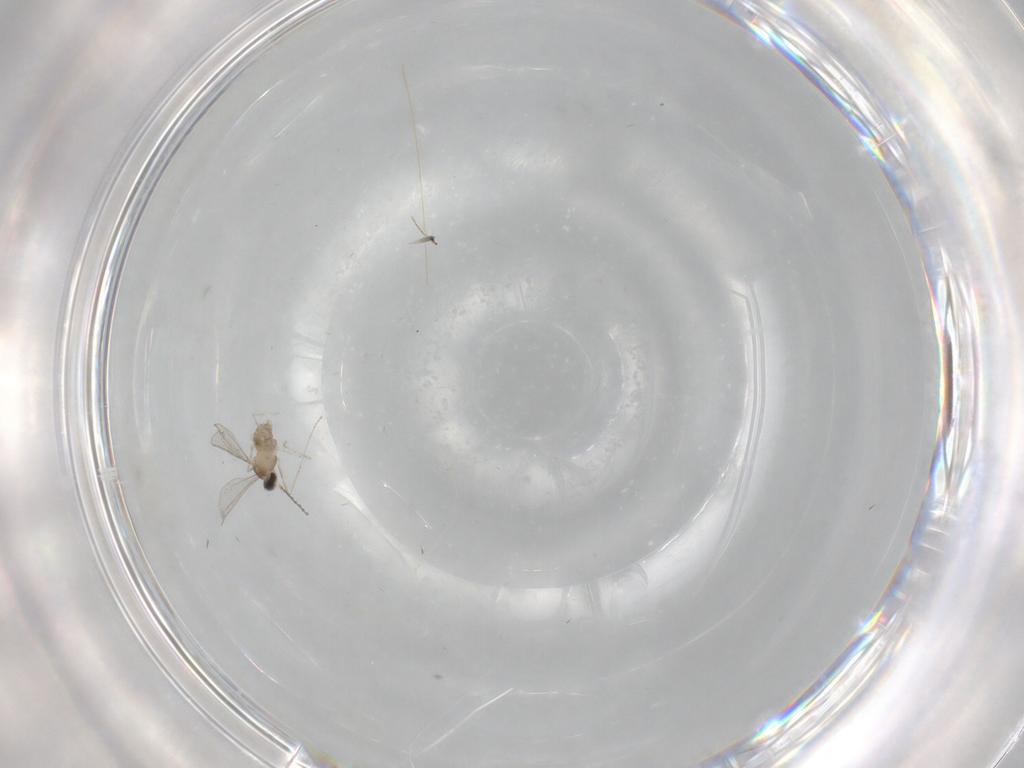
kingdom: Animalia
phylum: Arthropoda
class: Insecta
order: Diptera
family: Cecidomyiidae
